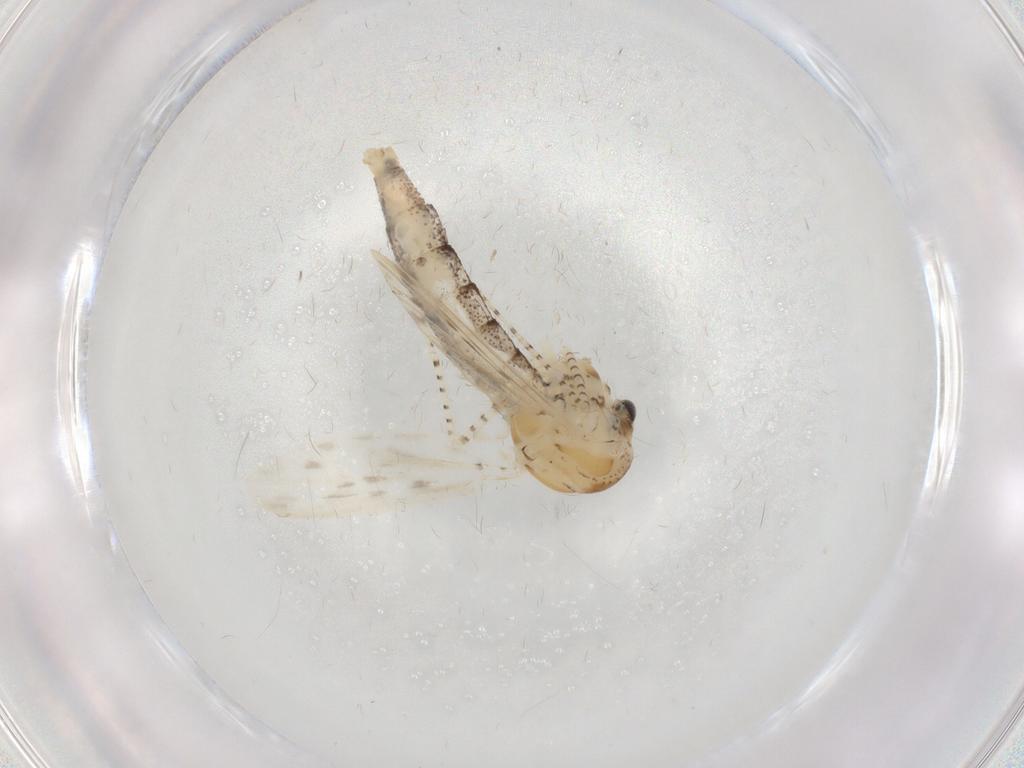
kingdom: Animalia
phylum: Arthropoda
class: Insecta
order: Diptera
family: Chaoboridae
